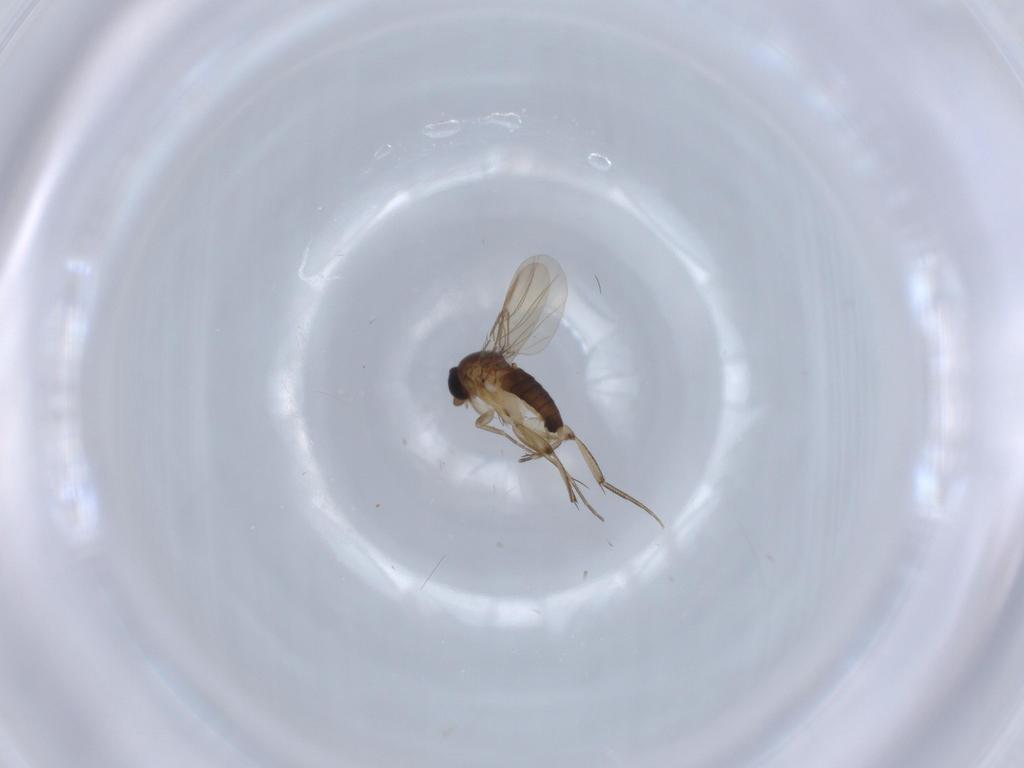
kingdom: Animalia
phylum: Arthropoda
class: Insecta
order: Diptera
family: Phoridae
